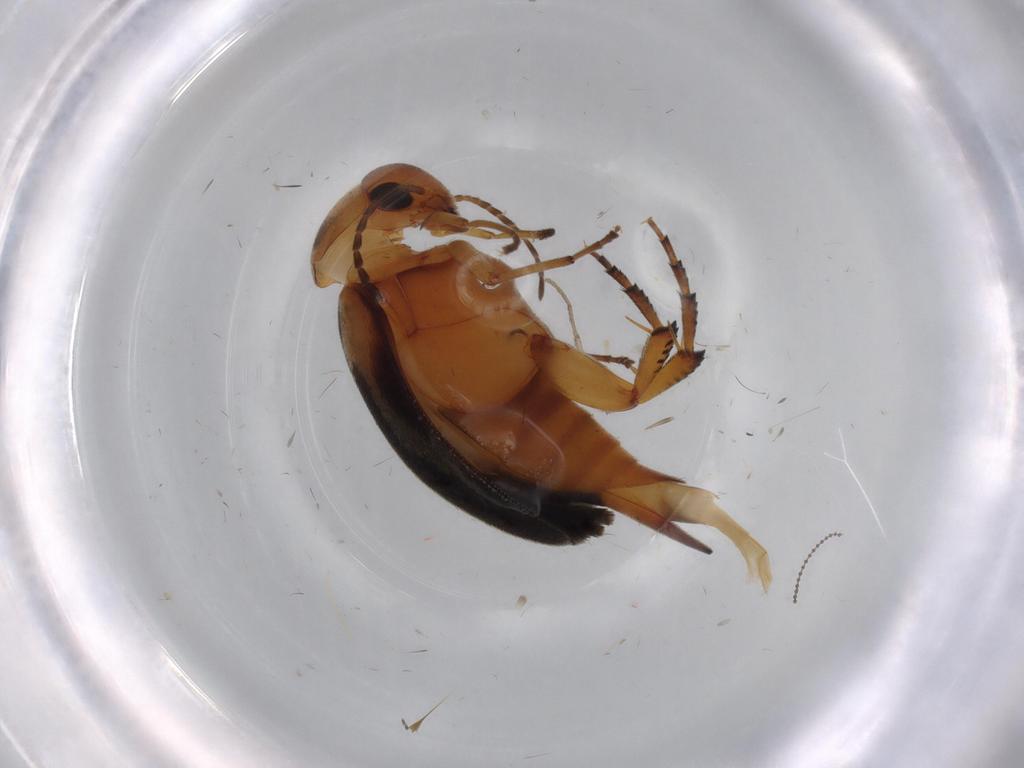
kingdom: Animalia
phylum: Arthropoda
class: Insecta
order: Coleoptera
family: Mordellidae
